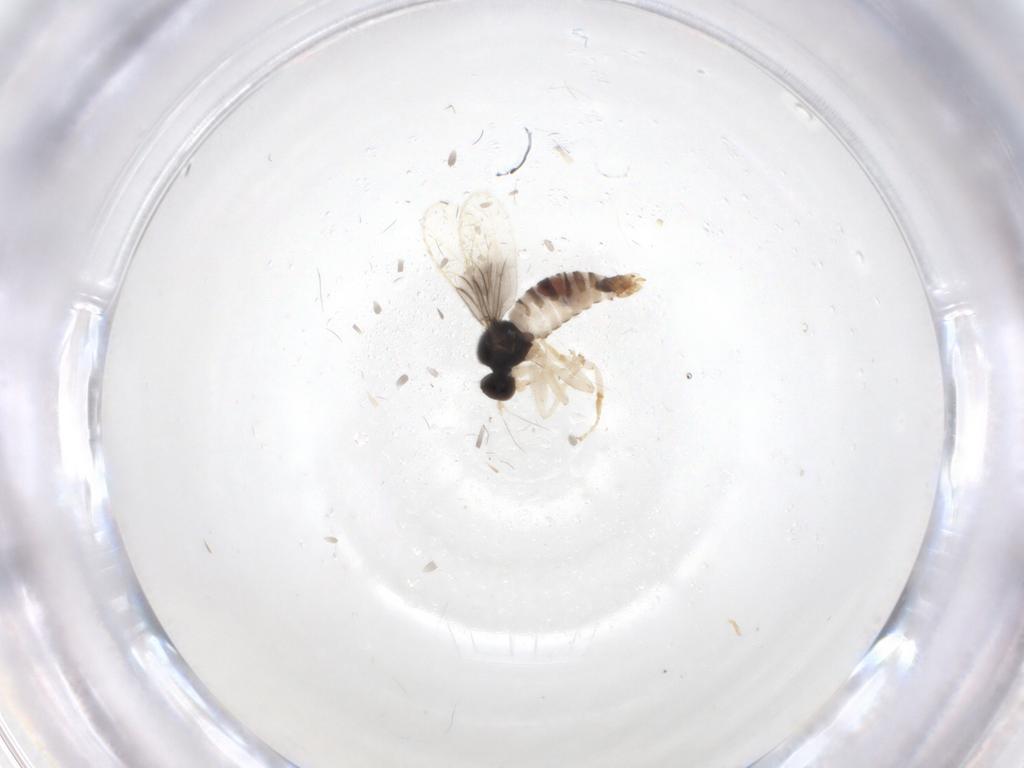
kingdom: Animalia
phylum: Arthropoda
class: Insecta
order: Diptera
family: Hybotidae
